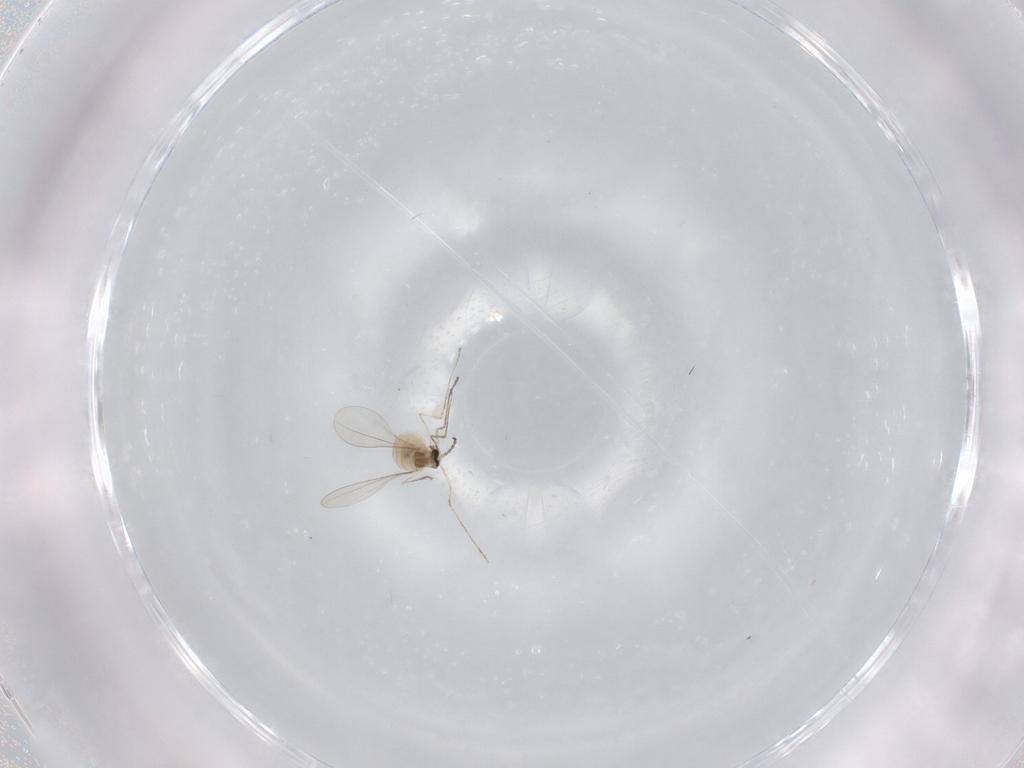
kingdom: Animalia
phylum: Arthropoda
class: Insecta
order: Diptera
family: Cecidomyiidae
